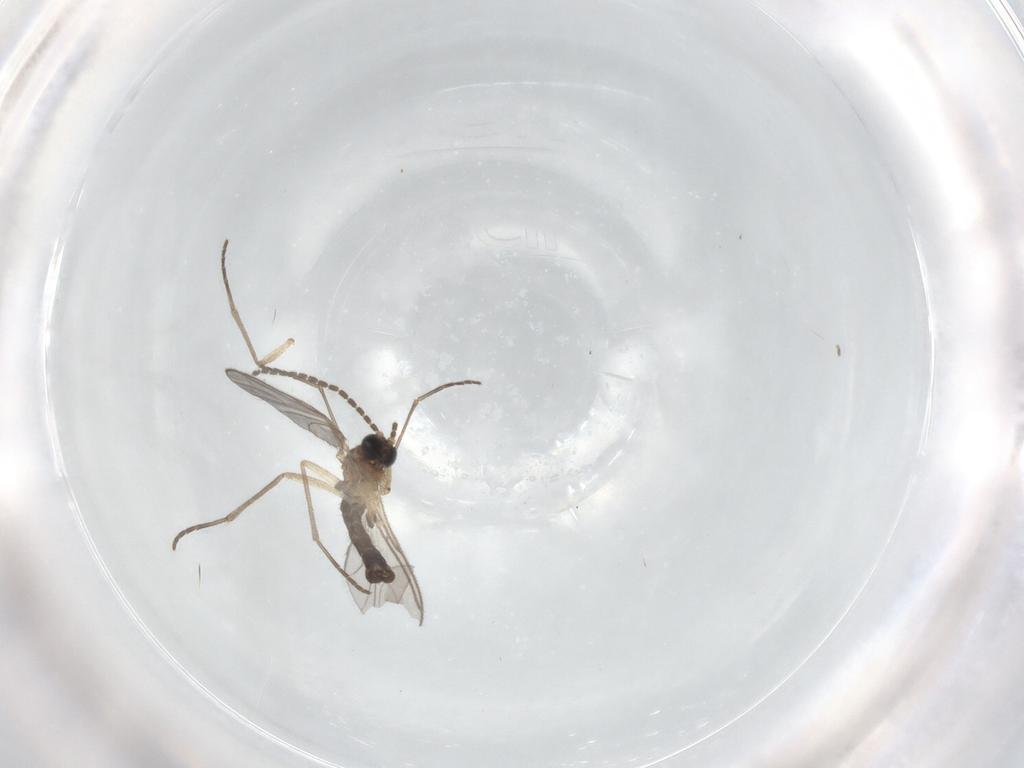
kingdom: Animalia
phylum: Arthropoda
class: Insecta
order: Diptera
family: Sciaridae
